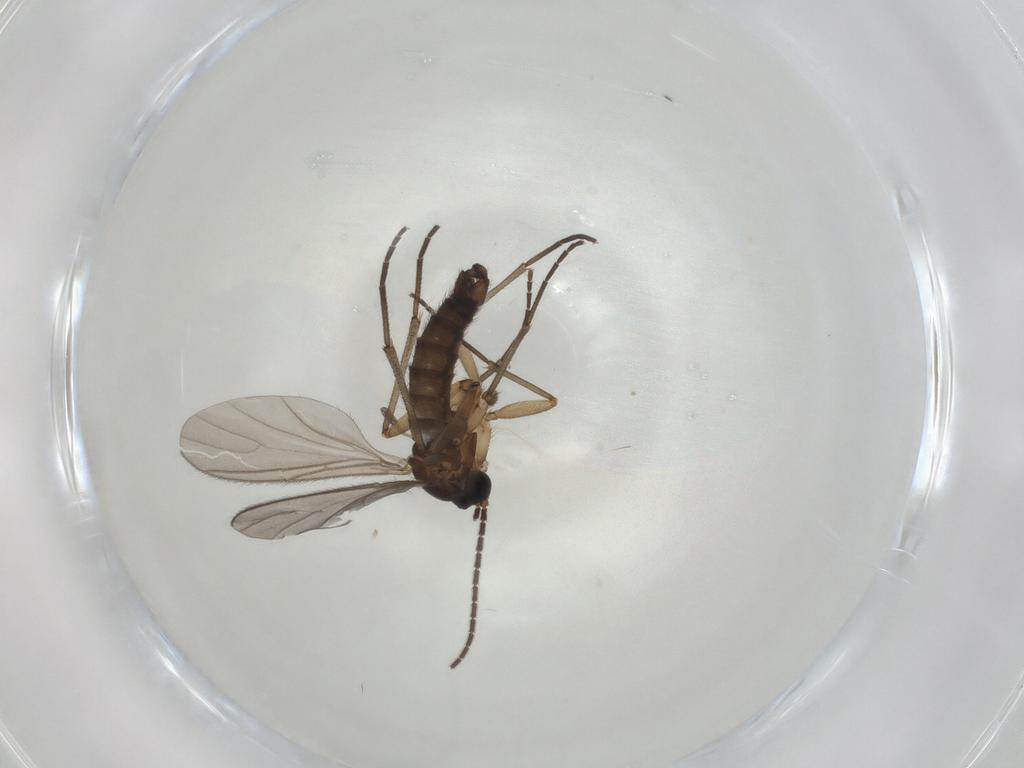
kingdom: Animalia
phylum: Arthropoda
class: Insecta
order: Diptera
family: Sciaridae
